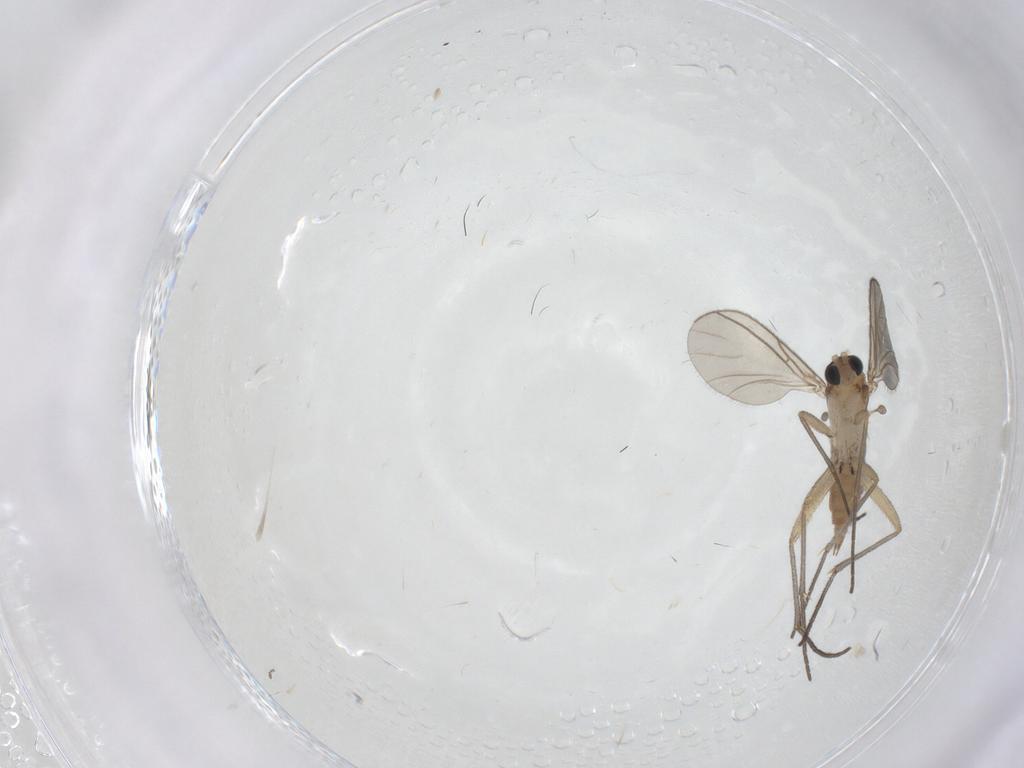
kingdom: Animalia
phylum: Arthropoda
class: Insecta
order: Diptera
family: Sciaridae
